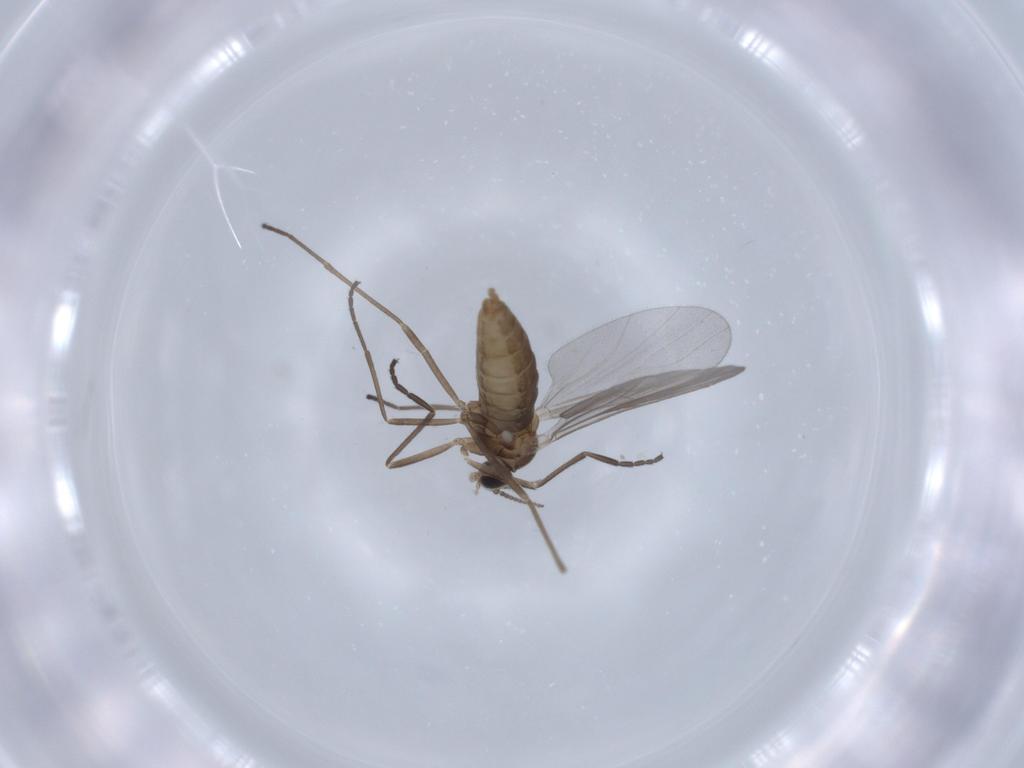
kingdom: Animalia
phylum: Arthropoda
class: Insecta
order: Diptera
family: Cecidomyiidae
